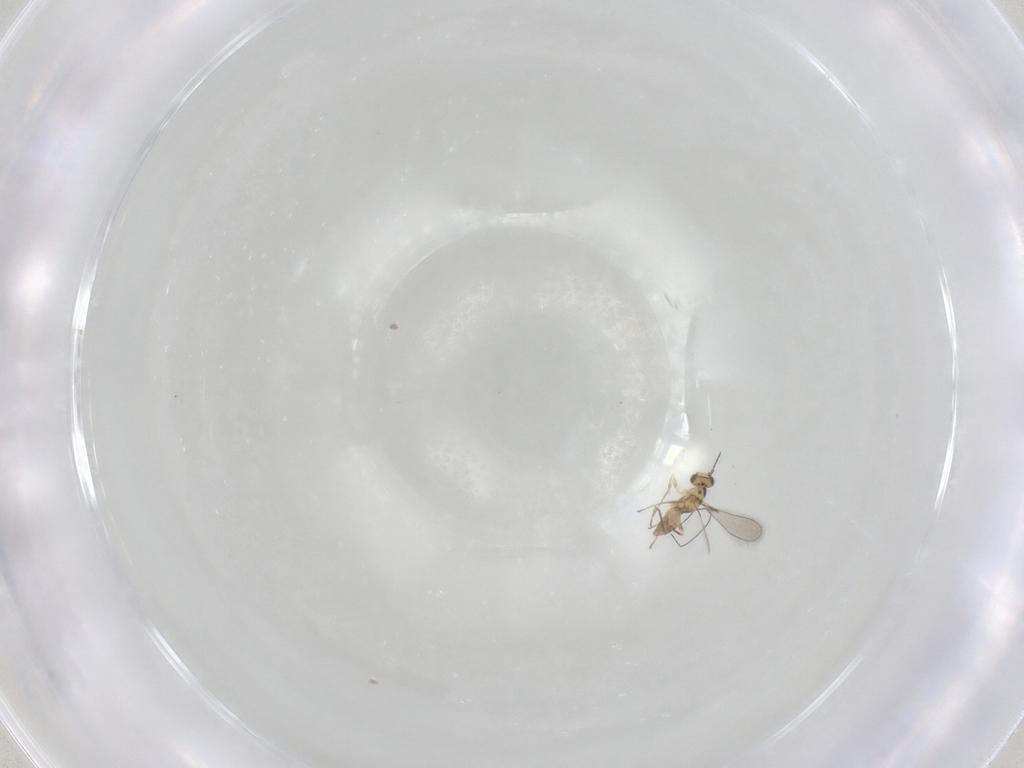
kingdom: Animalia
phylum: Arthropoda
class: Insecta
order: Hymenoptera
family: Mymaridae
